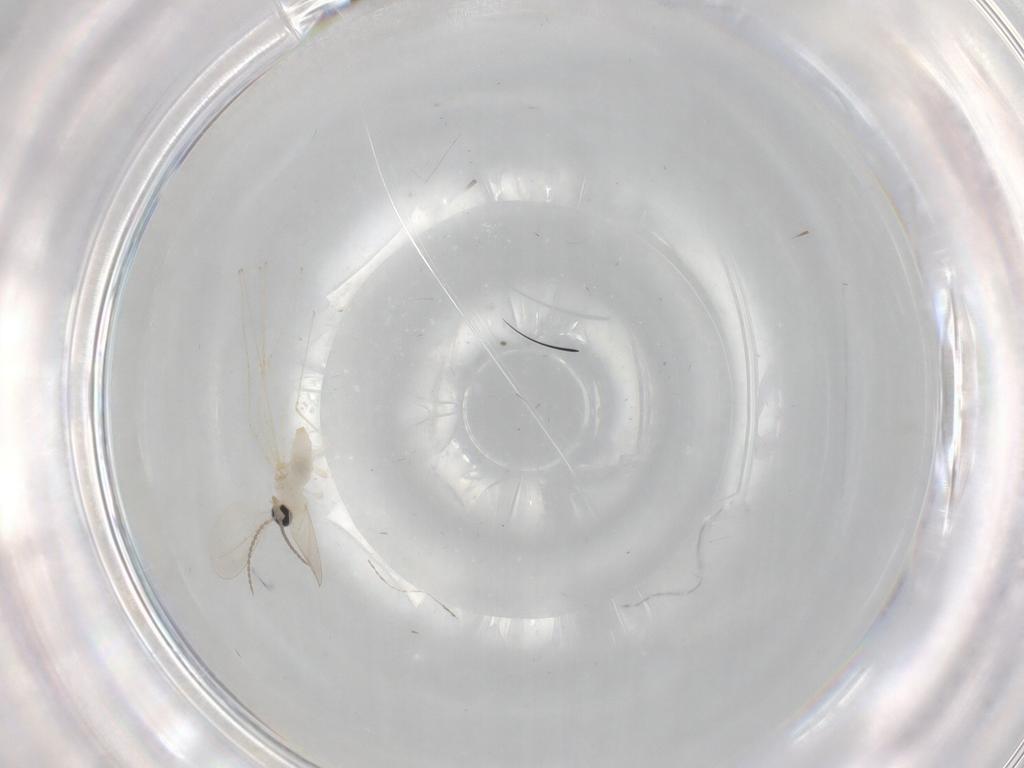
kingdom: Animalia
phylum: Arthropoda
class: Insecta
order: Diptera
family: Cecidomyiidae
